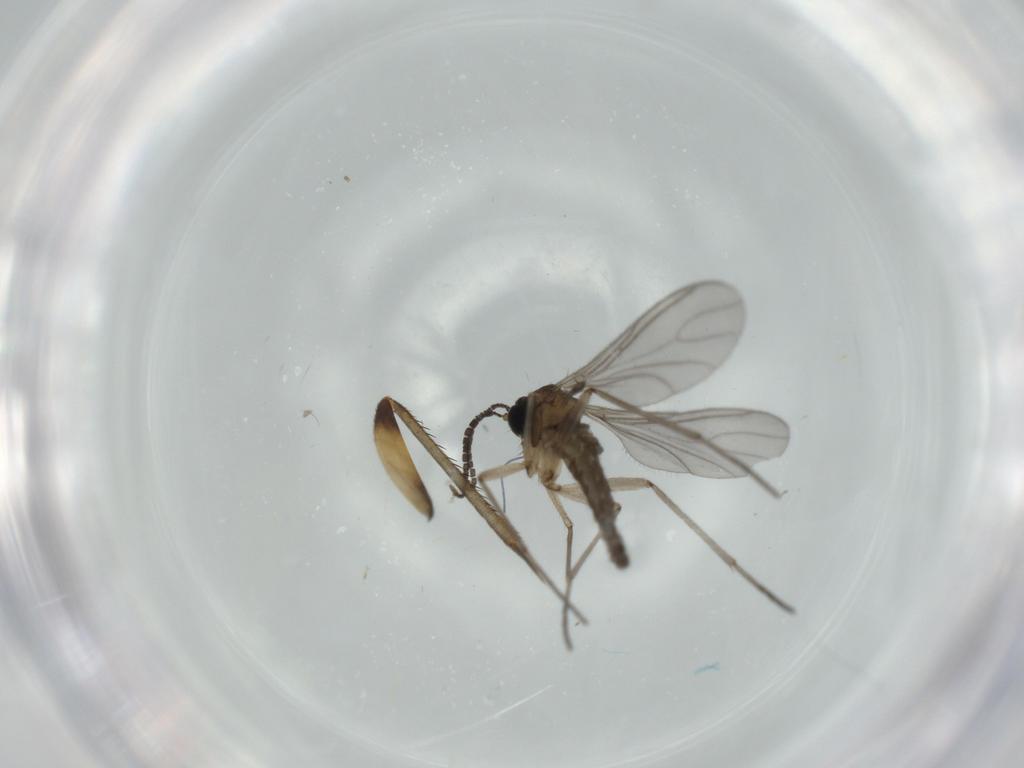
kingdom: Animalia
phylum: Arthropoda
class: Insecta
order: Diptera
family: Mycetophilidae
